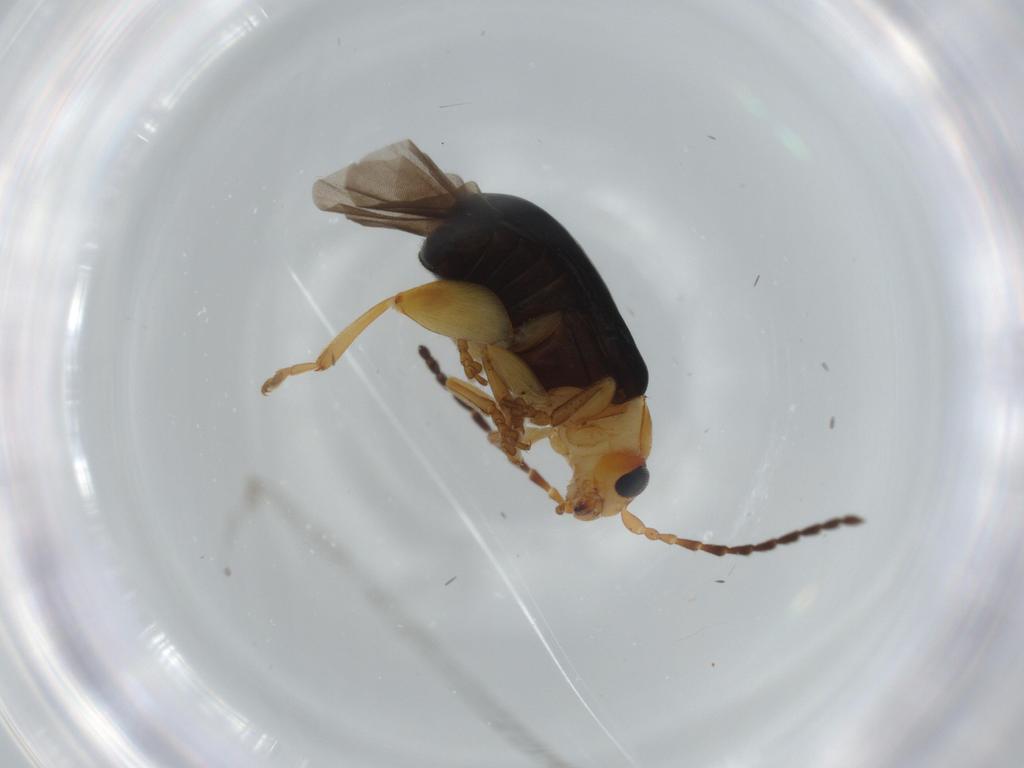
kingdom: Animalia
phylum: Arthropoda
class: Insecta
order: Coleoptera
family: Chrysomelidae
